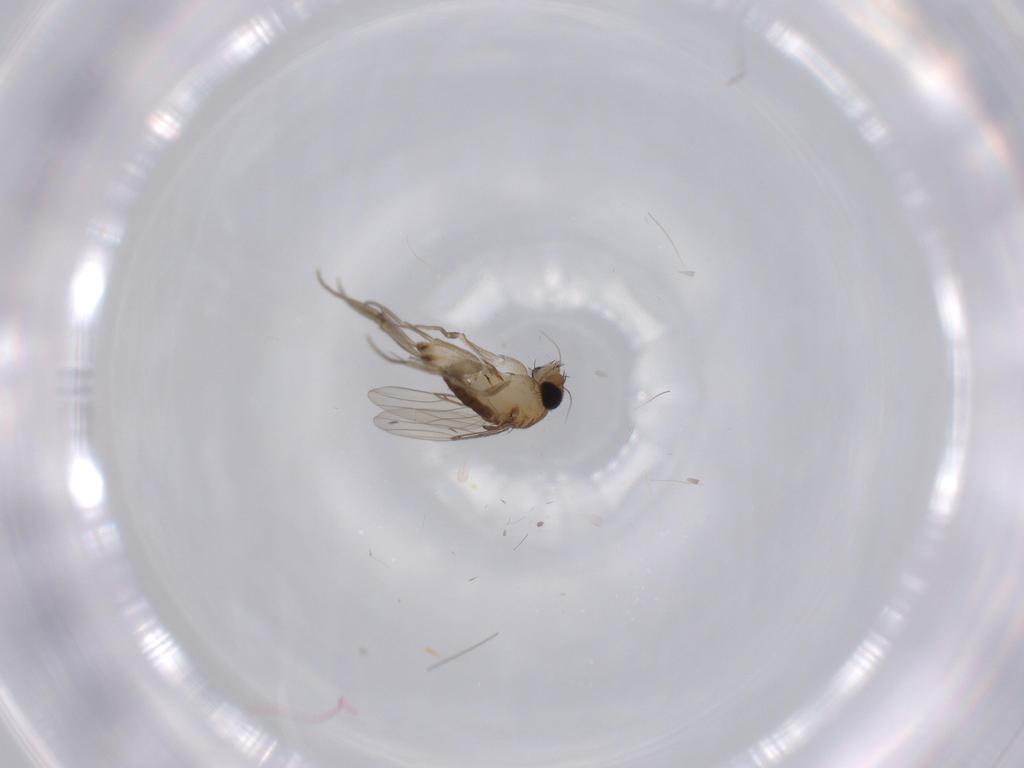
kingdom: Animalia
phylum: Arthropoda
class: Insecta
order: Diptera
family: Phoridae
